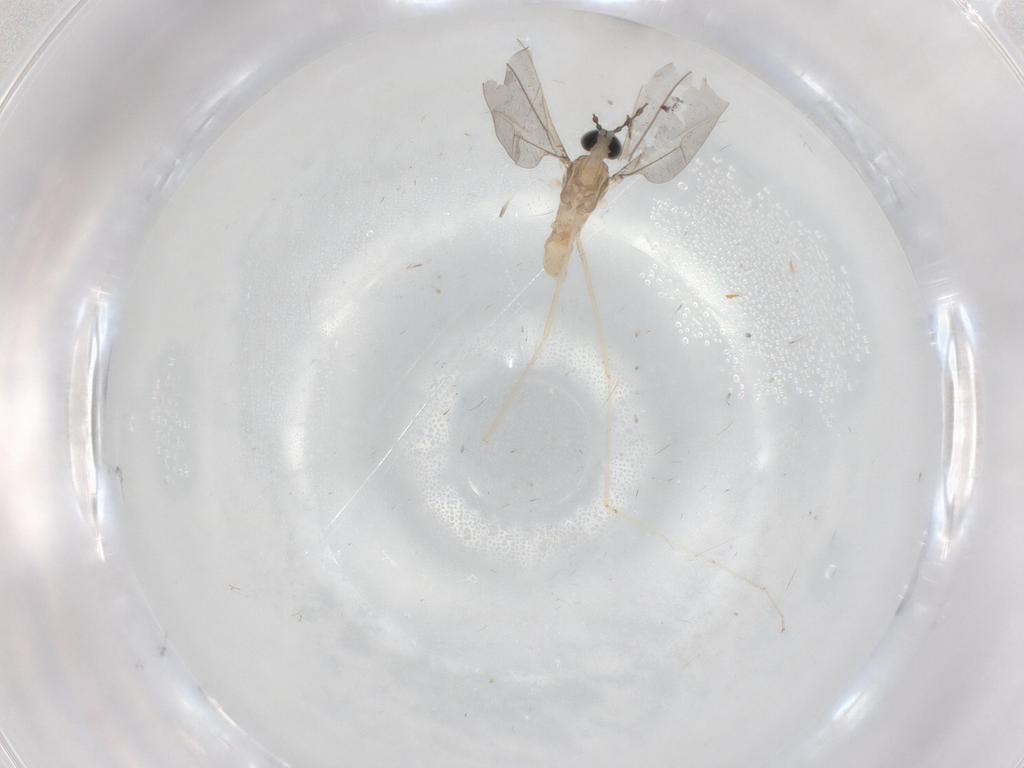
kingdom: Animalia
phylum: Arthropoda
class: Insecta
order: Diptera
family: Cecidomyiidae
